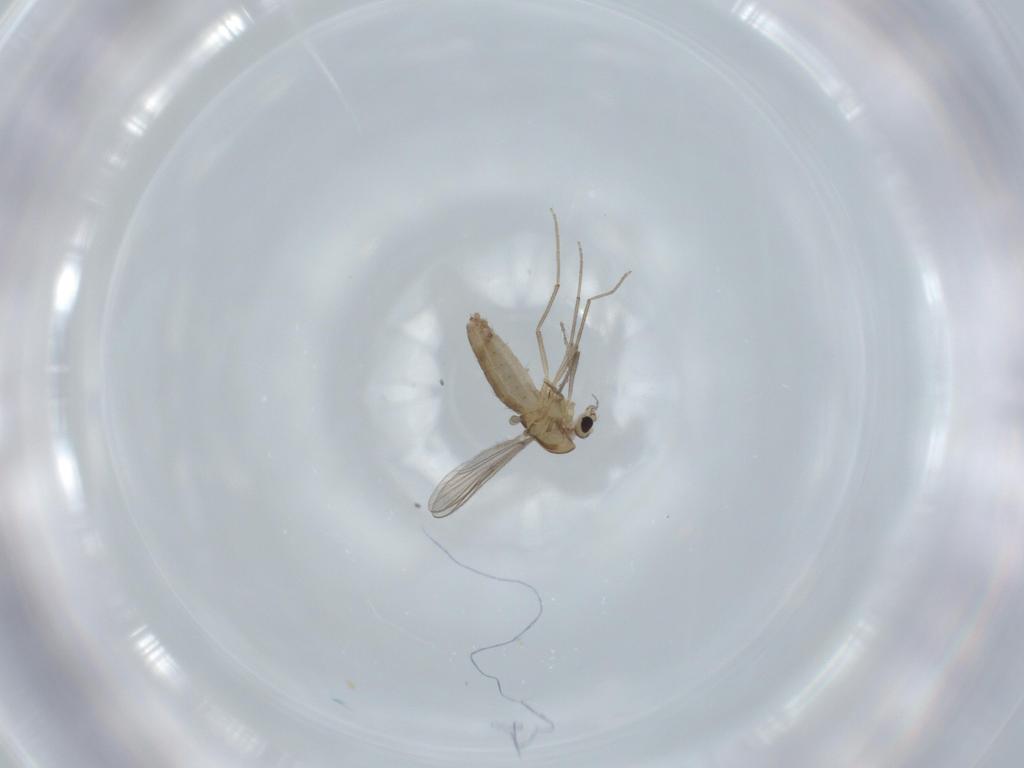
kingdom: Animalia
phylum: Arthropoda
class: Insecta
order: Diptera
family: Chironomidae
